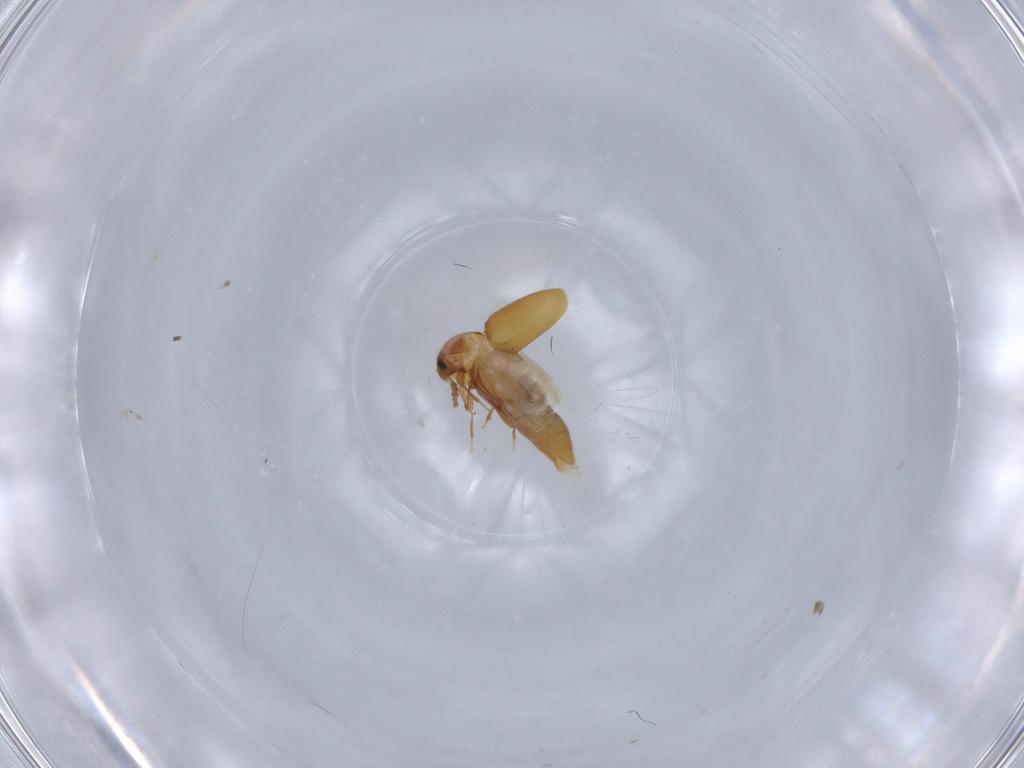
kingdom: Animalia
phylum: Arthropoda
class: Insecta
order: Coleoptera
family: Corylophidae
